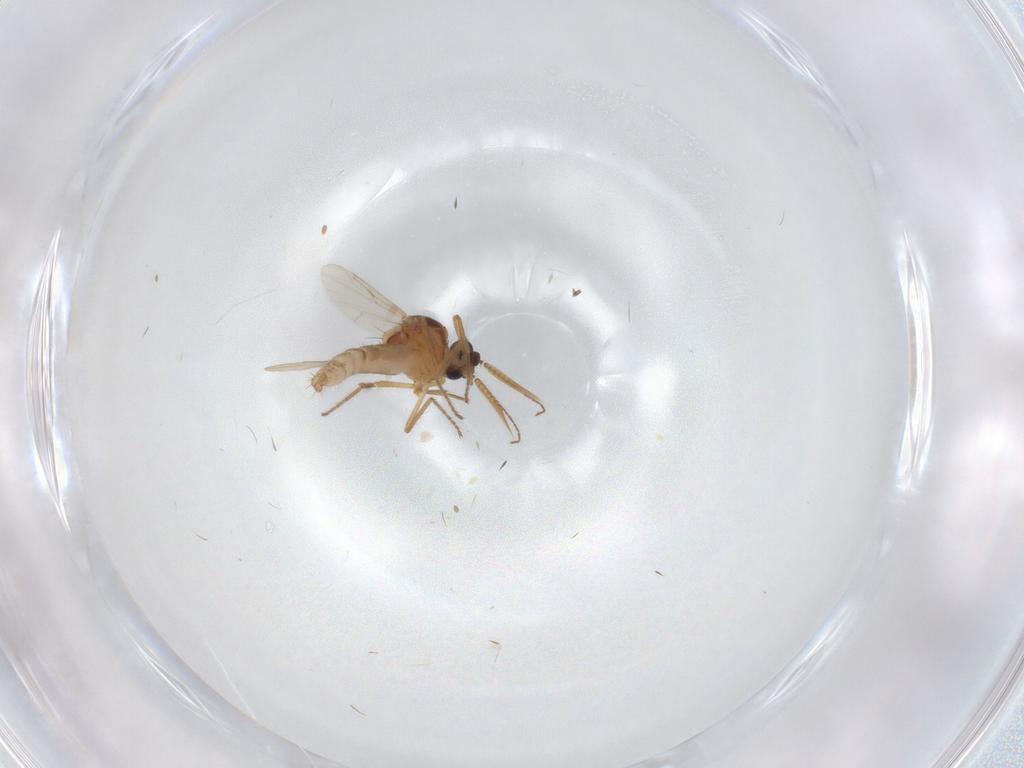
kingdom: Animalia
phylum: Arthropoda
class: Insecta
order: Diptera
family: Ceratopogonidae
